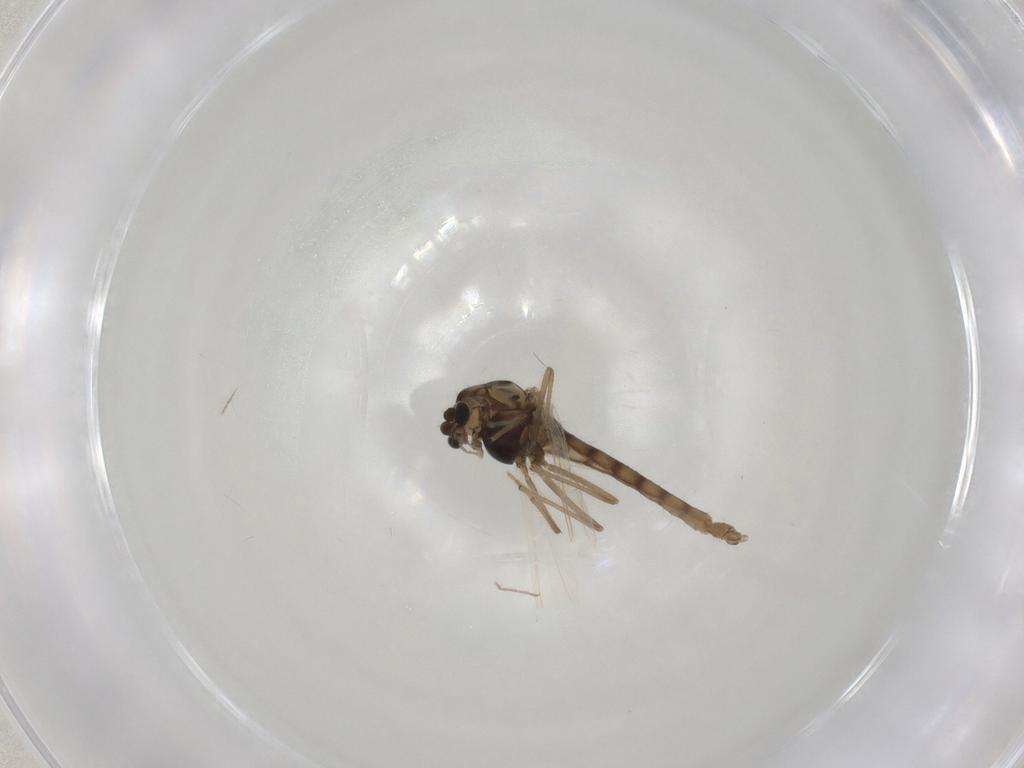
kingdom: Animalia
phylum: Arthropoda
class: Insecta
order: Diptera
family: Chironomidae
